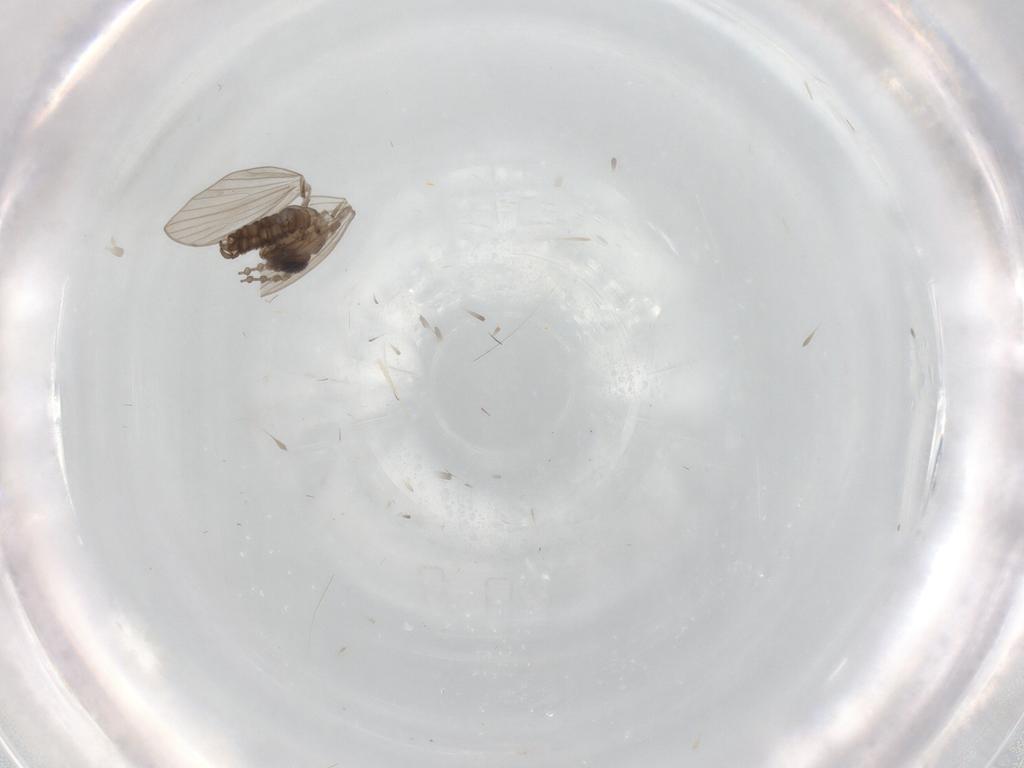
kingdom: Animalia
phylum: Arthropoda
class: Insecta
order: Diptera
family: Psychodidae
